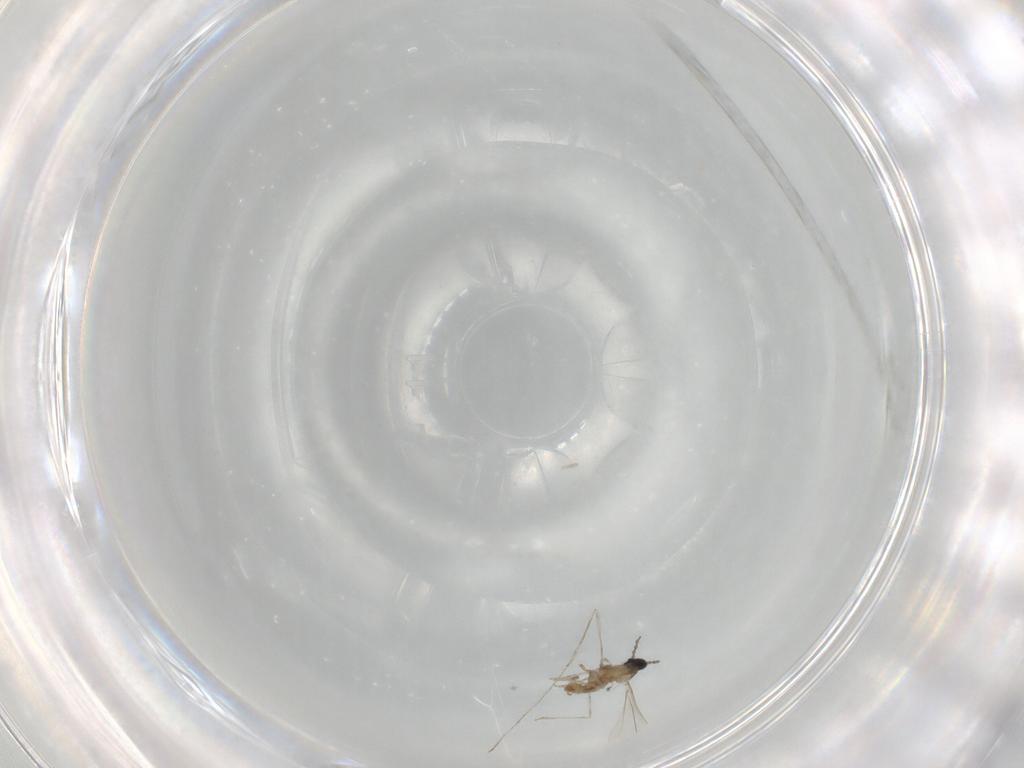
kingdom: Animalia
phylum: Arthropoda
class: Insecta
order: Diptera
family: Cecidomyiidae
